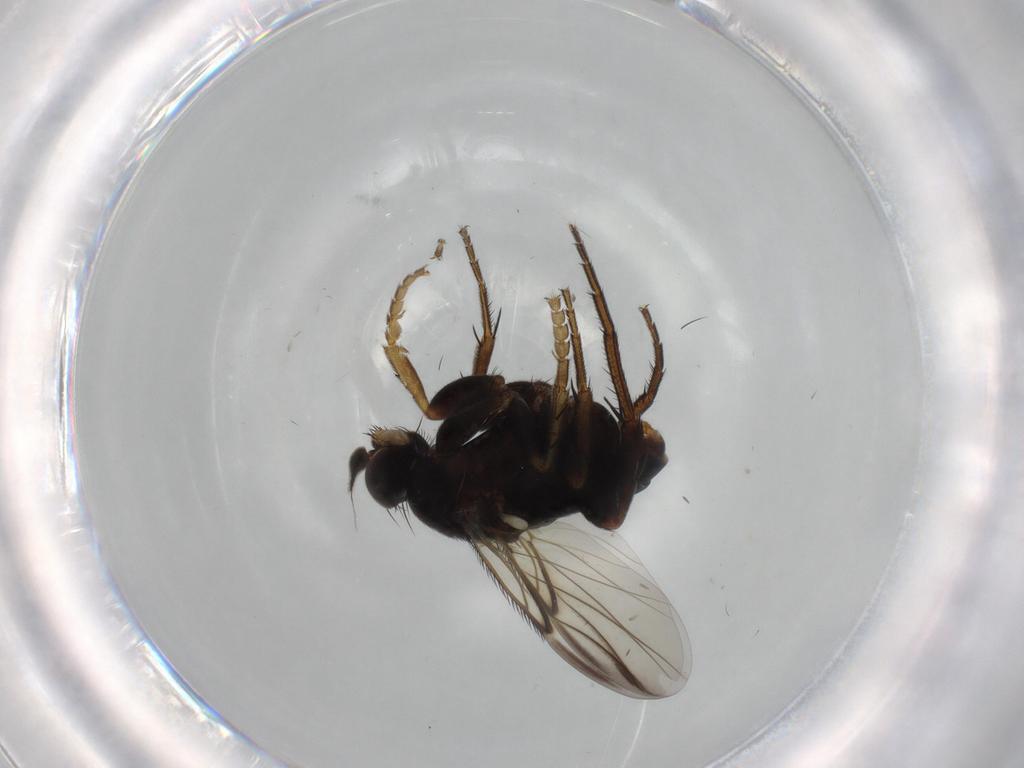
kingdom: Animalia
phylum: Arthropoda
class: Insecta
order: Diptera
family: Phoridae
